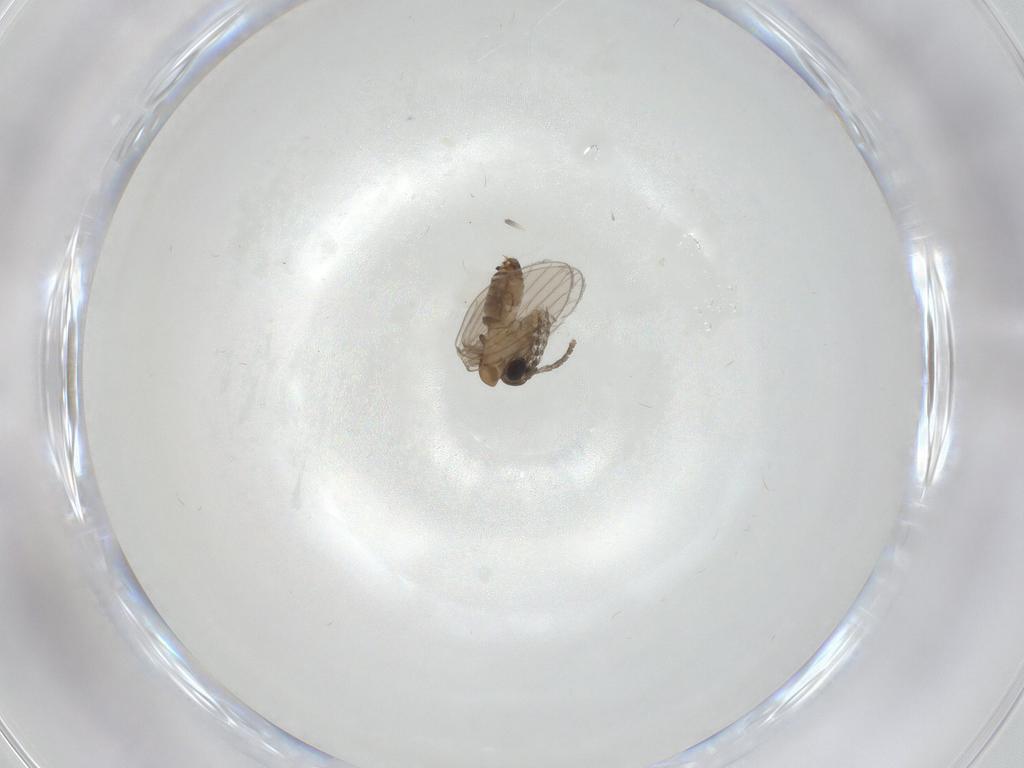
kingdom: Animalia
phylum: Arthropoda
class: Insecta
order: Diptera
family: Psychodidae
